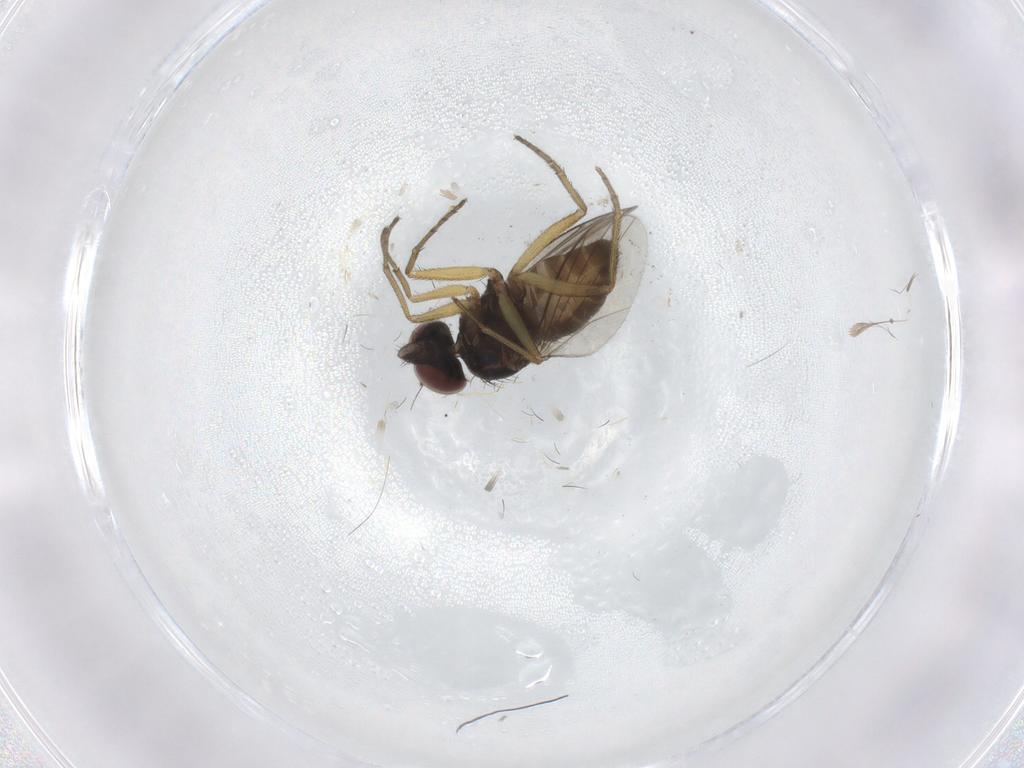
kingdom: Animalia
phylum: Arthropoda
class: Insecta
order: Diptera
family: Dolichopodidae
